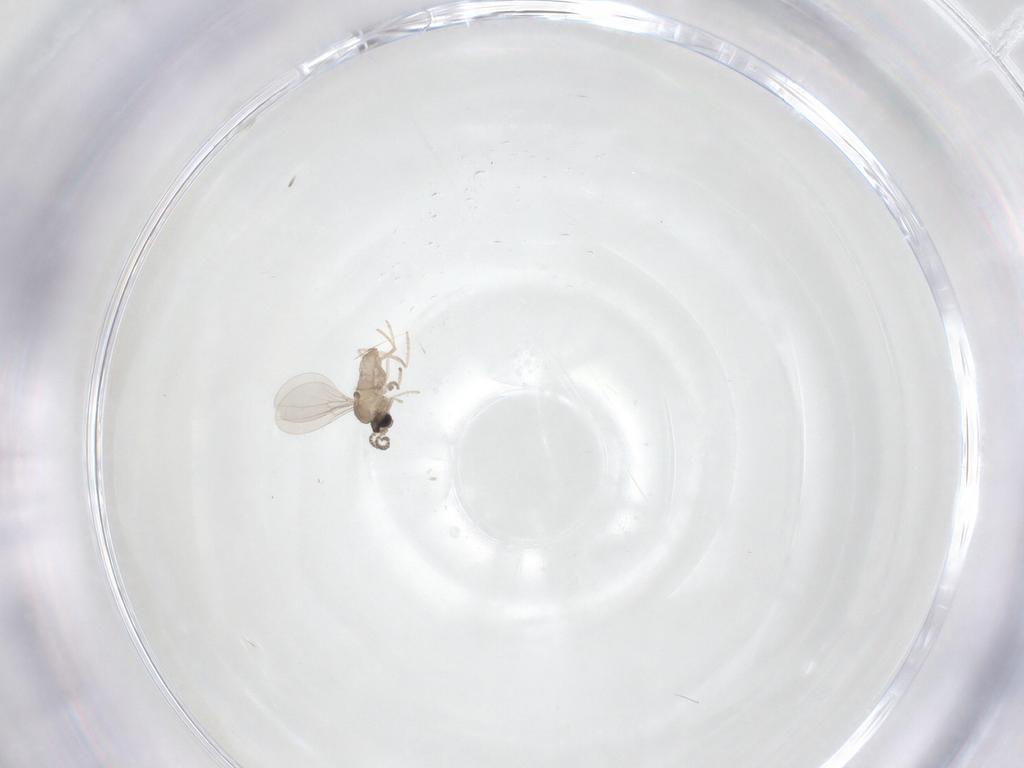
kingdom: Animalia
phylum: Arthropoda
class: Insecta
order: Diptera
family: Cecidomyiidae
